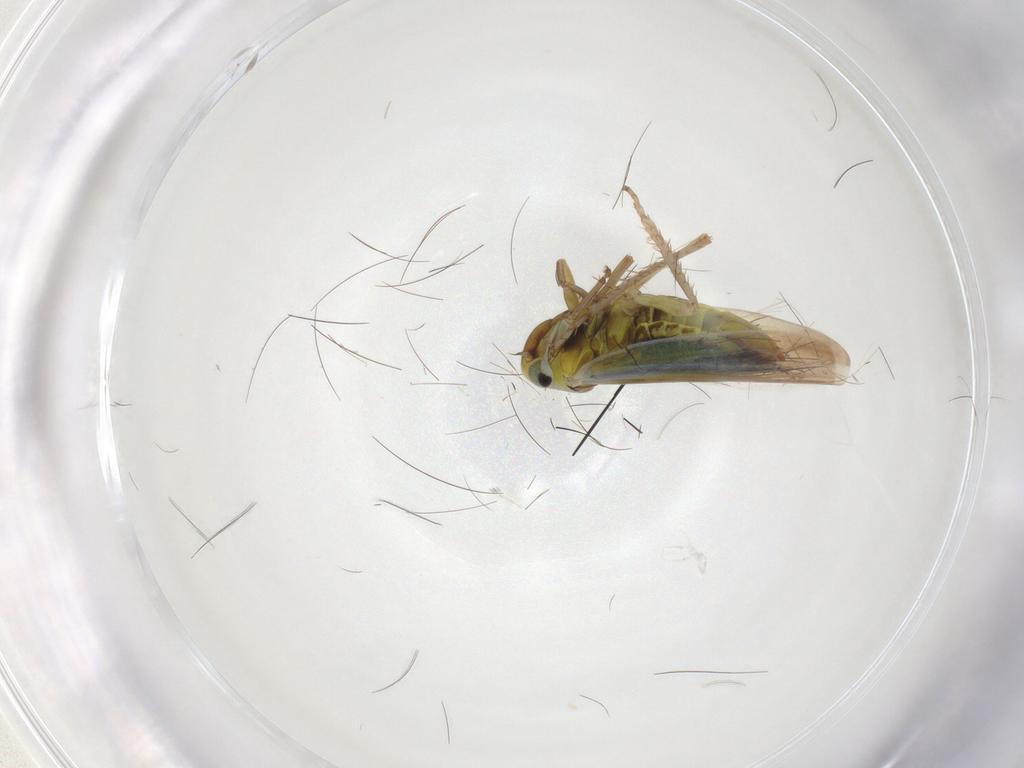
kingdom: Animalia
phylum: Arthropoda
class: Insecta
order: Hemiptera
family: Cicadellidae
